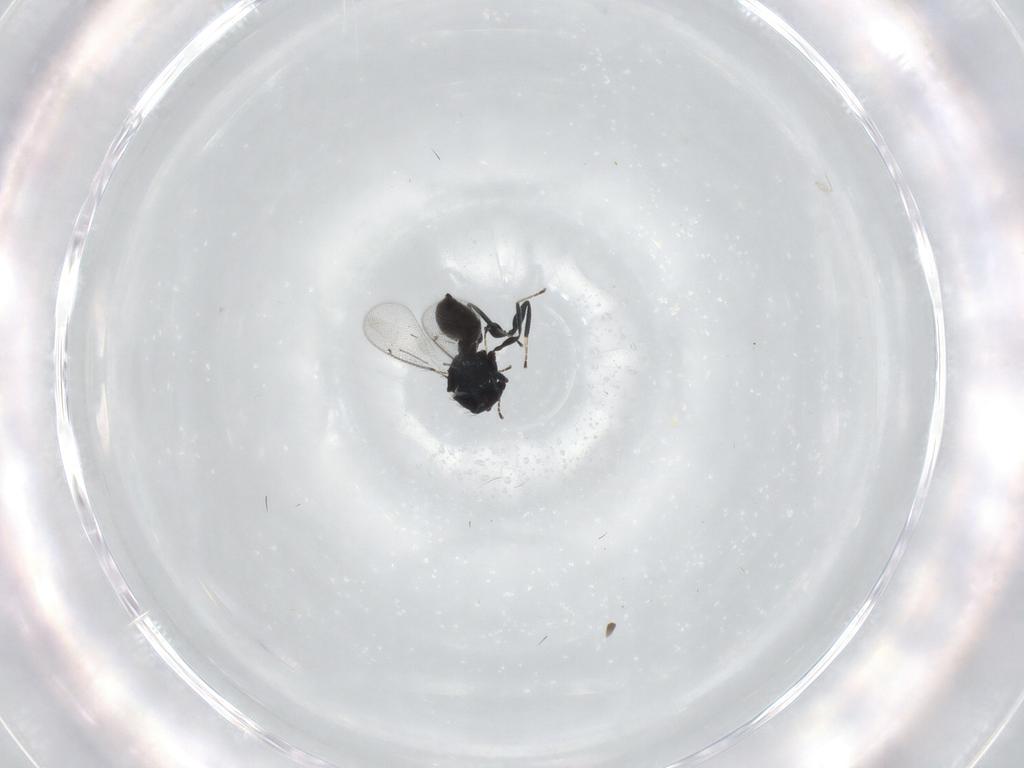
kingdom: Animalia
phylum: Arthropoda
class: Insecta
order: Hymenoptera
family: Eulophidae
